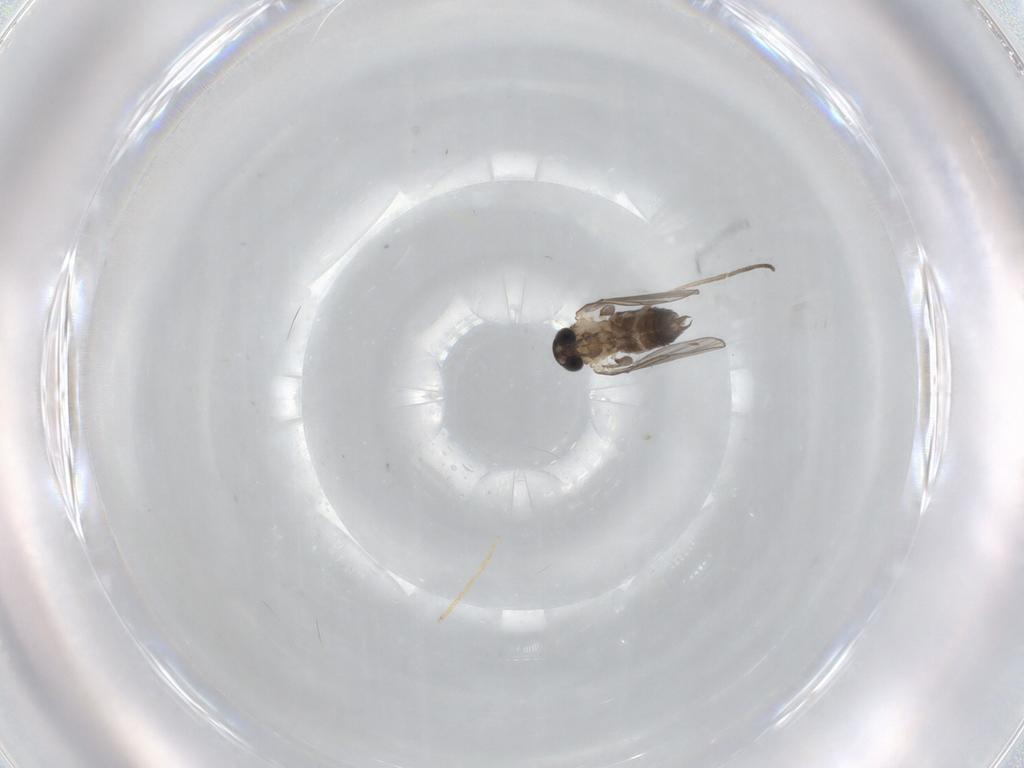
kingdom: Animalia
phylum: Arthropoda
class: Insecta
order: Diptera
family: Psychodidae
